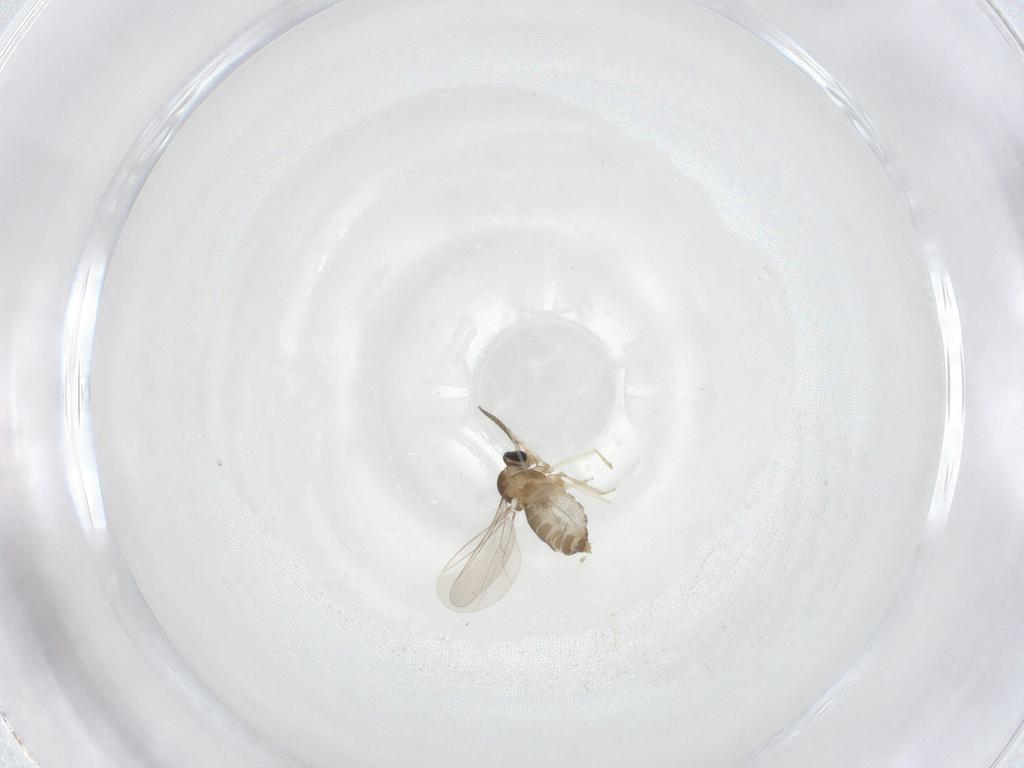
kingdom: Animalia
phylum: Arthropoda
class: Insecta
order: Diptera
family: Cecidomyiidae
